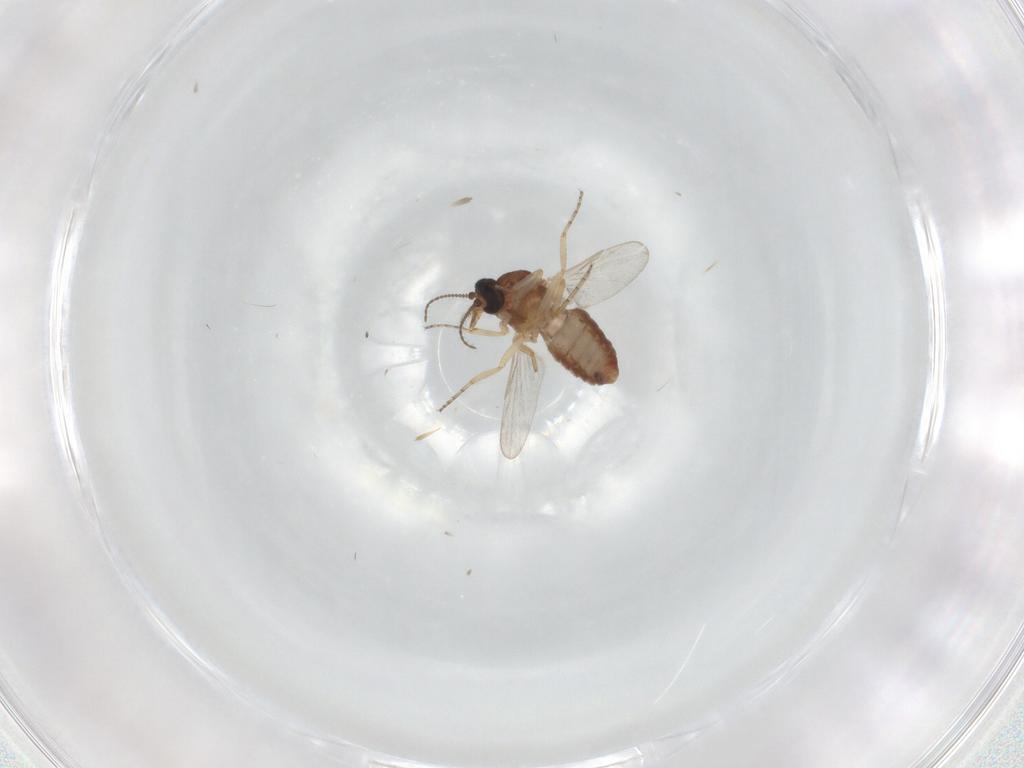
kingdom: Animalia
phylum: Arthropoda
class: Insecta
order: Diptera
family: Ceratopogonidae
